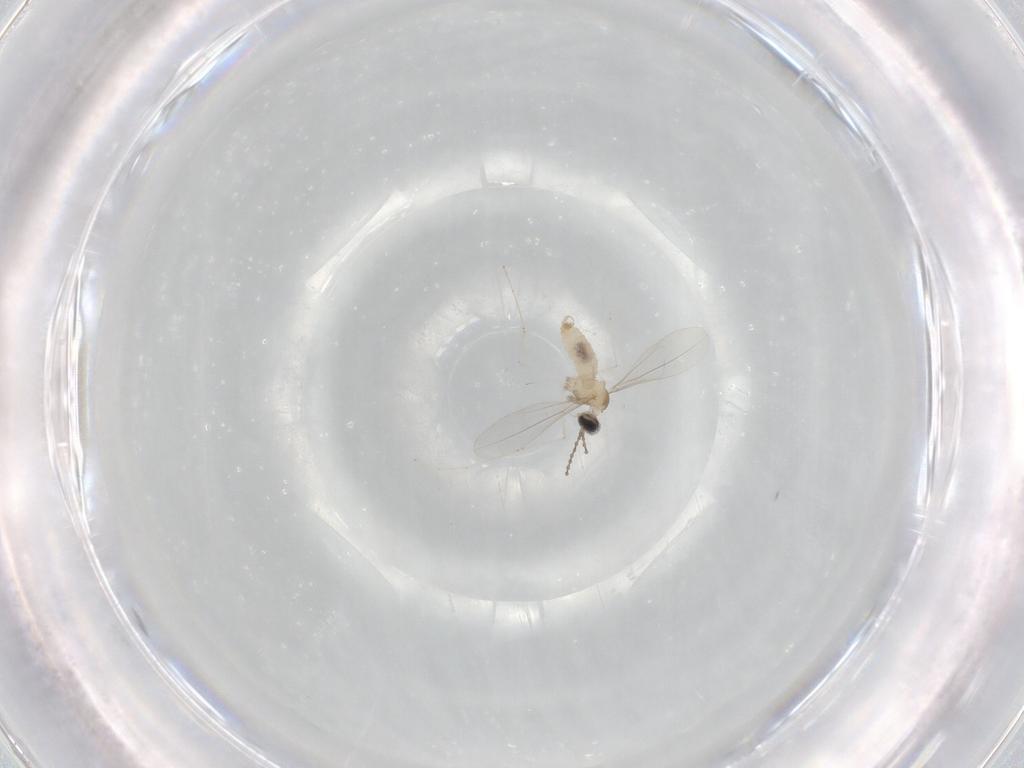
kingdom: Animalia
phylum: Arthropoda
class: Insecta
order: Diptera
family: Cecidomyiidae
